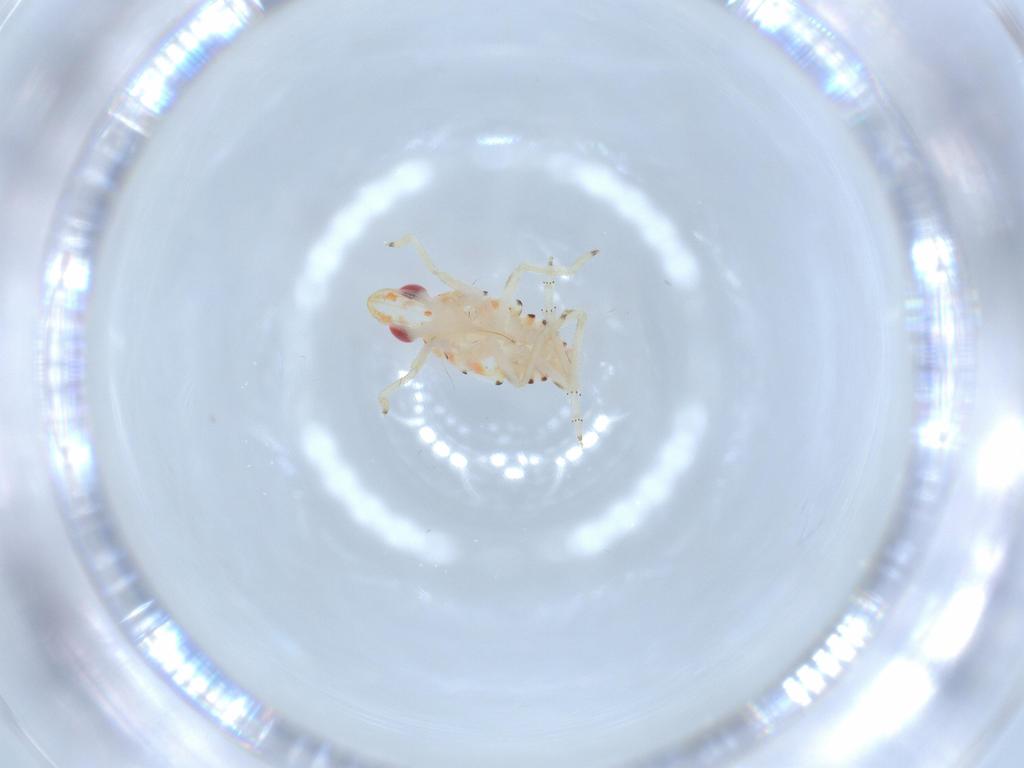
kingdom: Animalia
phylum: Arthropoda
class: Insecta
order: Hemiptera
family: Tropiduchidae
